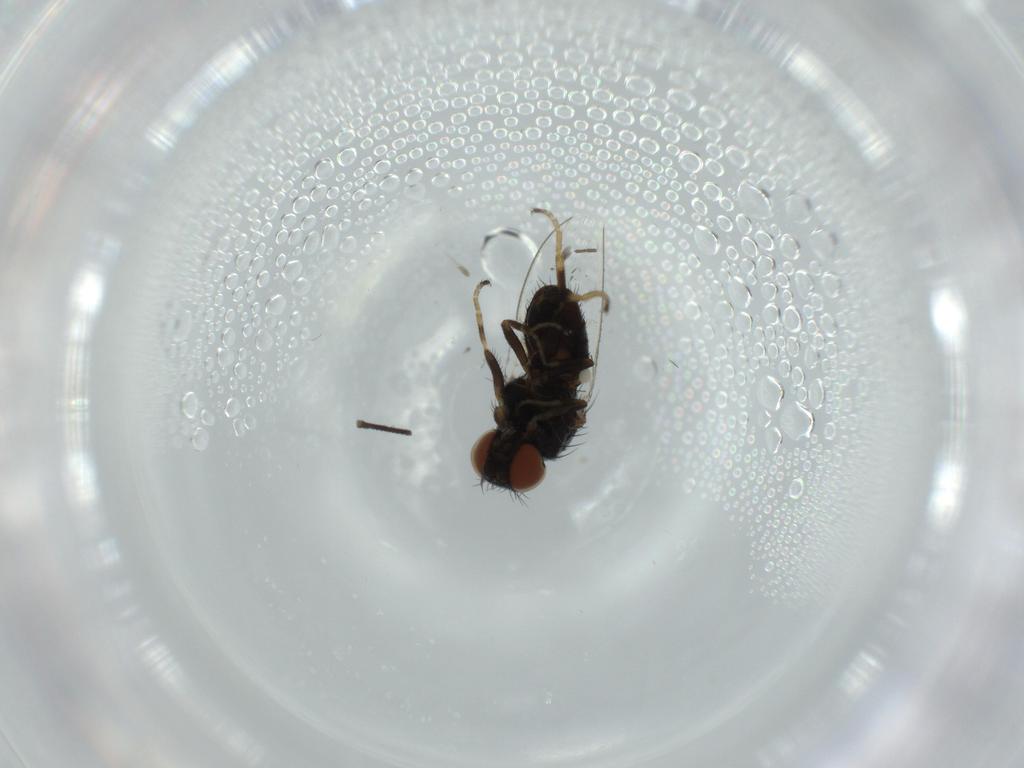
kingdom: Animalia
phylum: Arthropoda
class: Insecta
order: Diptera
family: Milichiidae
